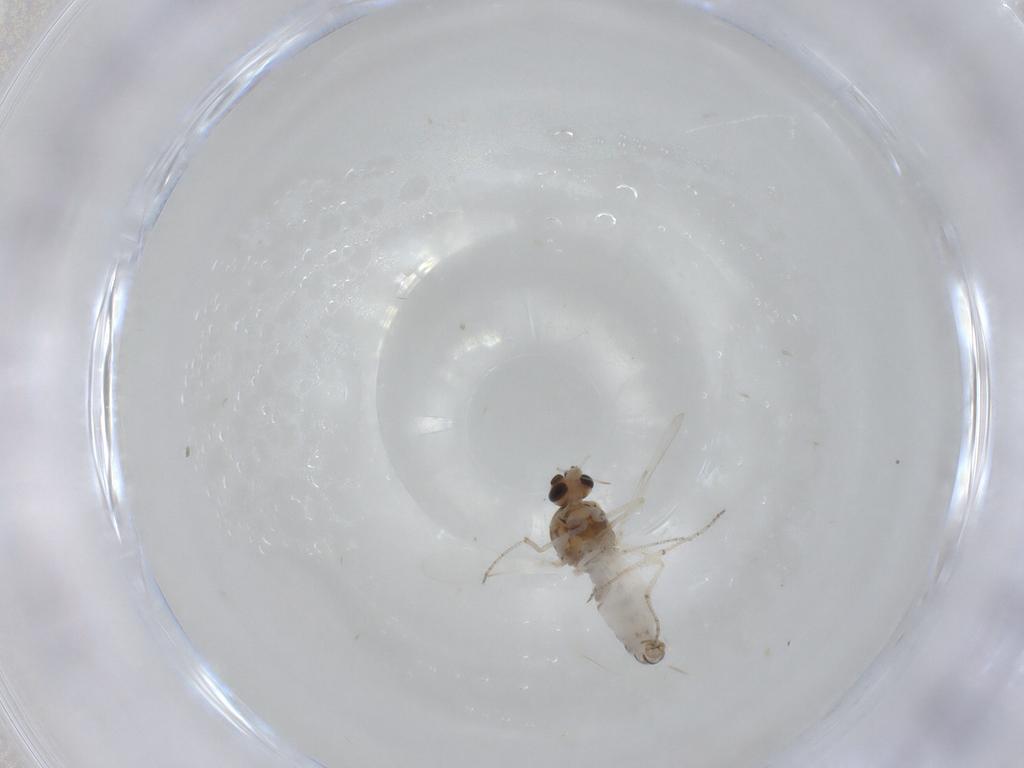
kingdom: Animalia
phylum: Arthropoda
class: Insecta
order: Diptera
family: Ceratopogonidae
